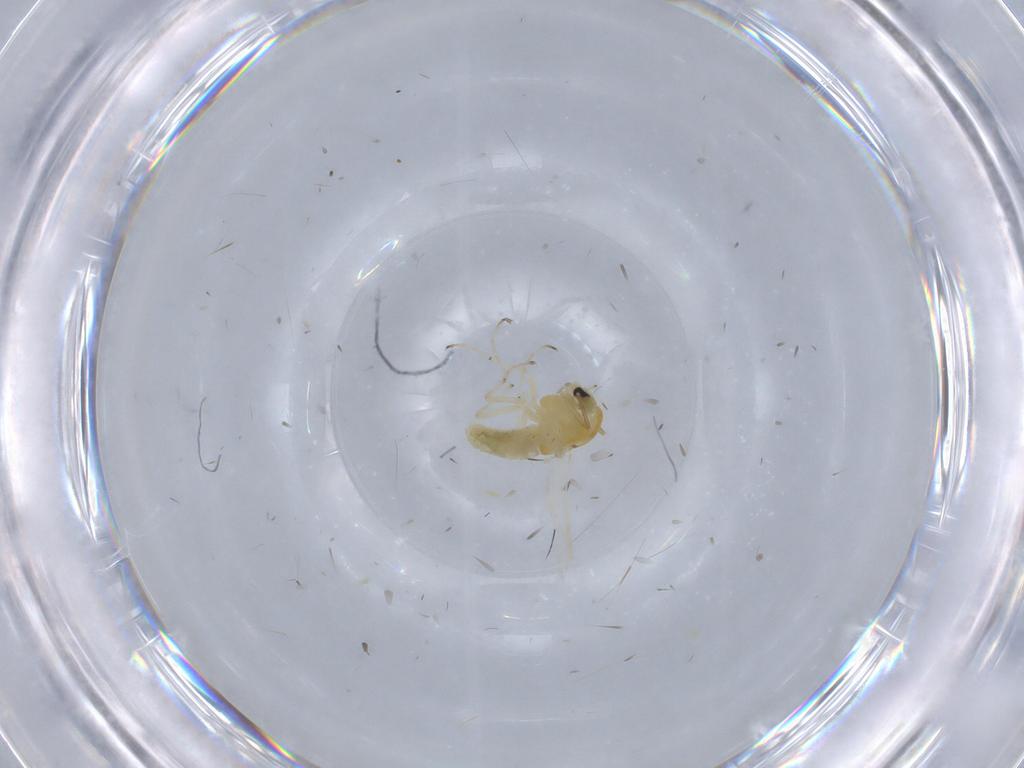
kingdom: Animalia
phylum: Arthropoda
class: Insecta
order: Diptera
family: Chironomidae
